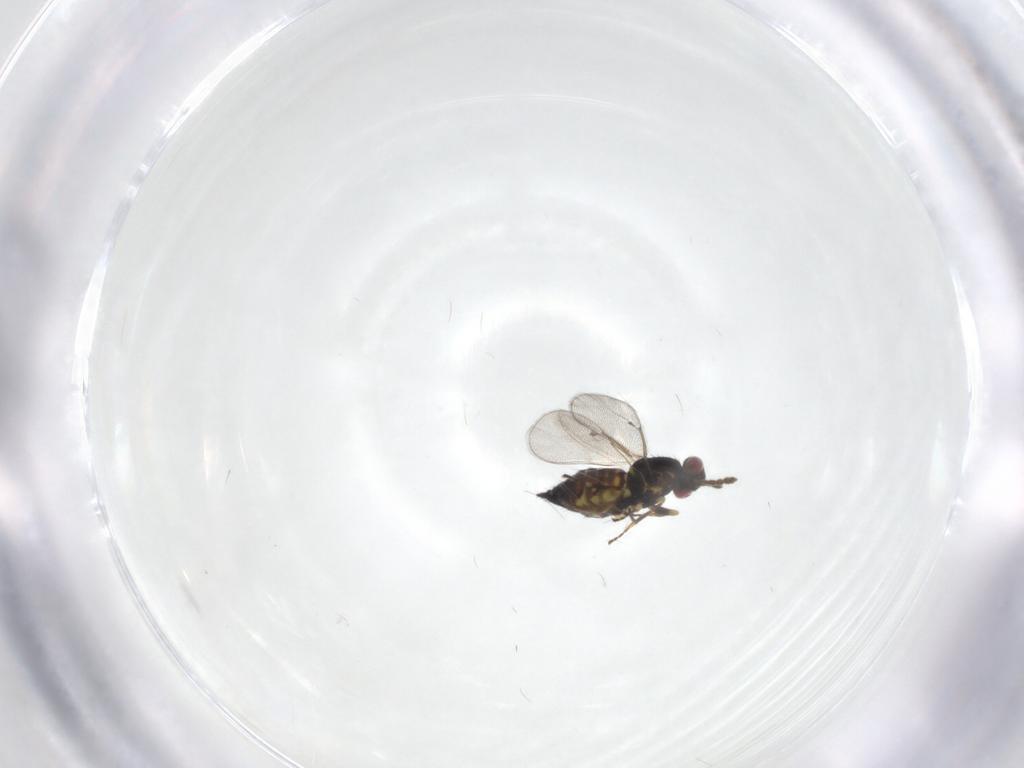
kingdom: Animalia
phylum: Arthropoda
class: Insecta
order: Hymenoptera
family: Eulophidae
